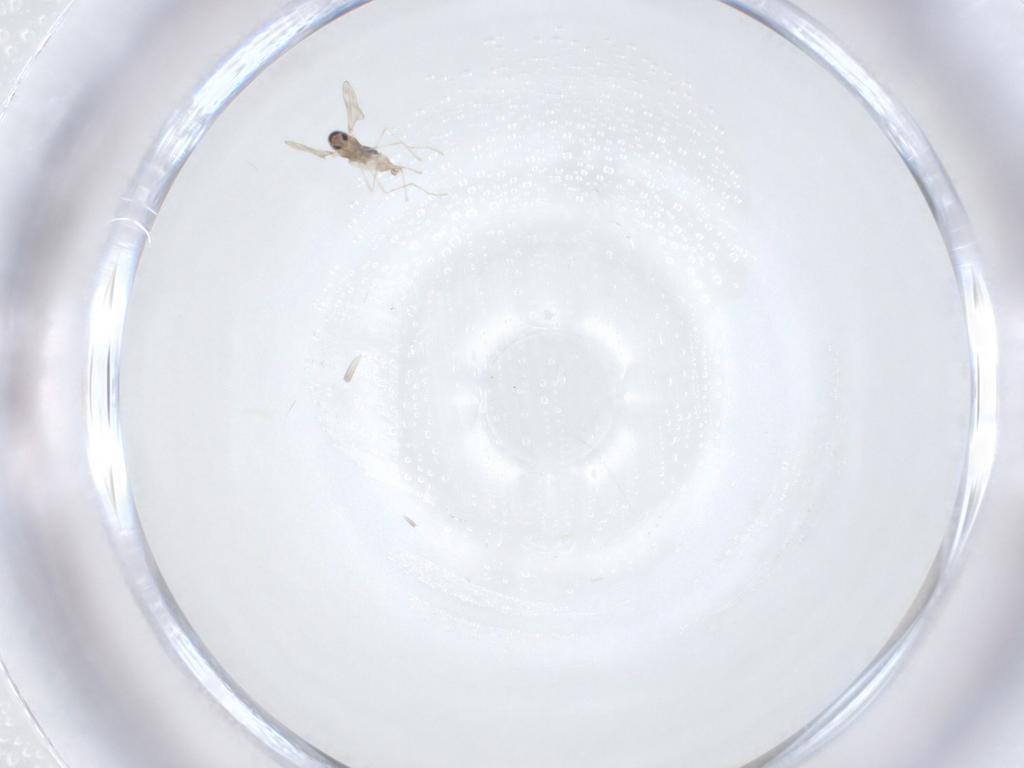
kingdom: Animalia
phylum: Arthropoda
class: Insecta
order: Diptera
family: Cecidomyiidae
